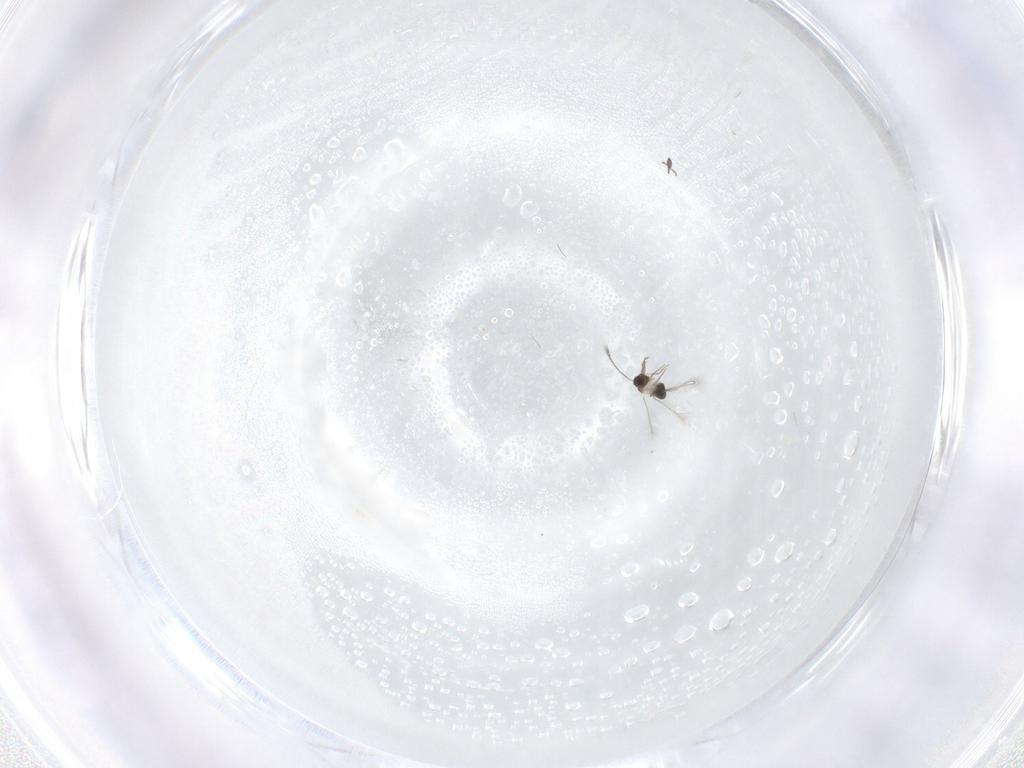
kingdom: Animalia
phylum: Arthropoda
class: Insecta
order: Hymenoptera
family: Mymaridae
